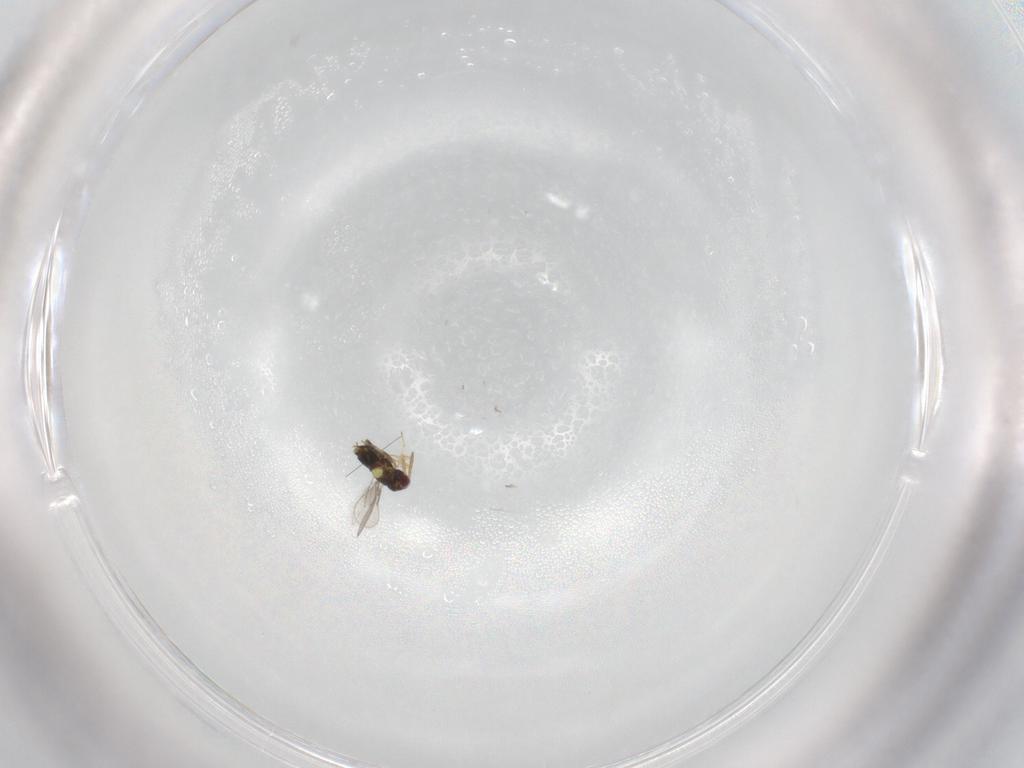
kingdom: Animalia
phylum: Arthropoda
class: Insecta
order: Hymenoptera
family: Aphelinidae
